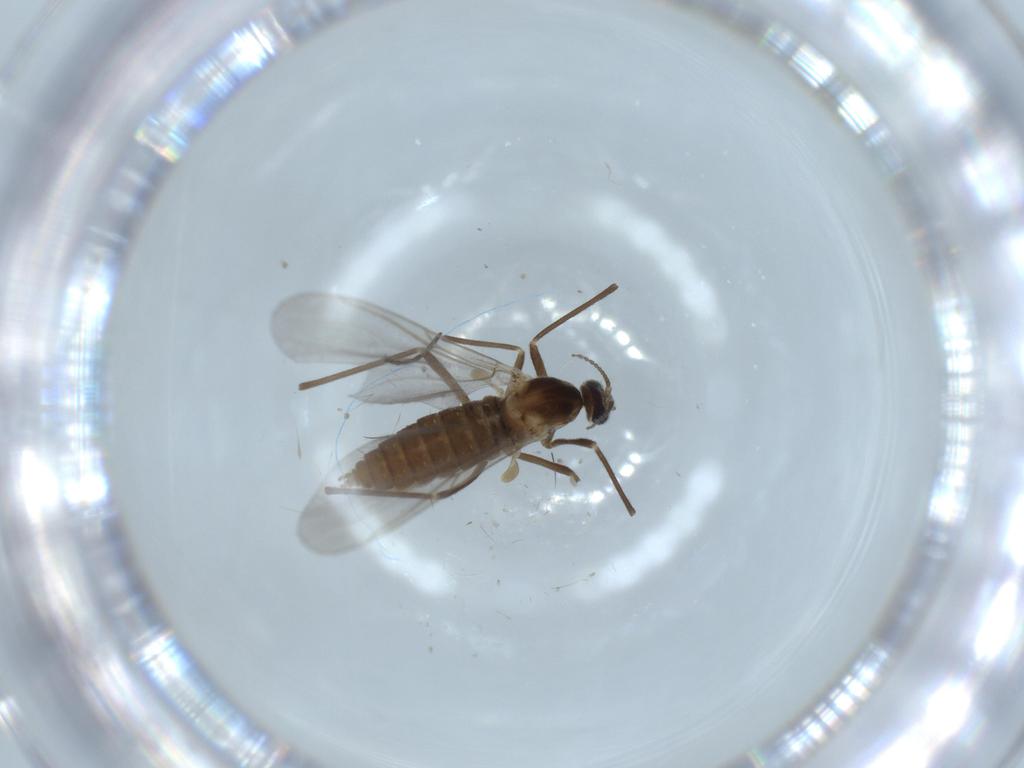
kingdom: Animalia
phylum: Arthropoda
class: Insecta
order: Diptera
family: Cecidomyiidae
